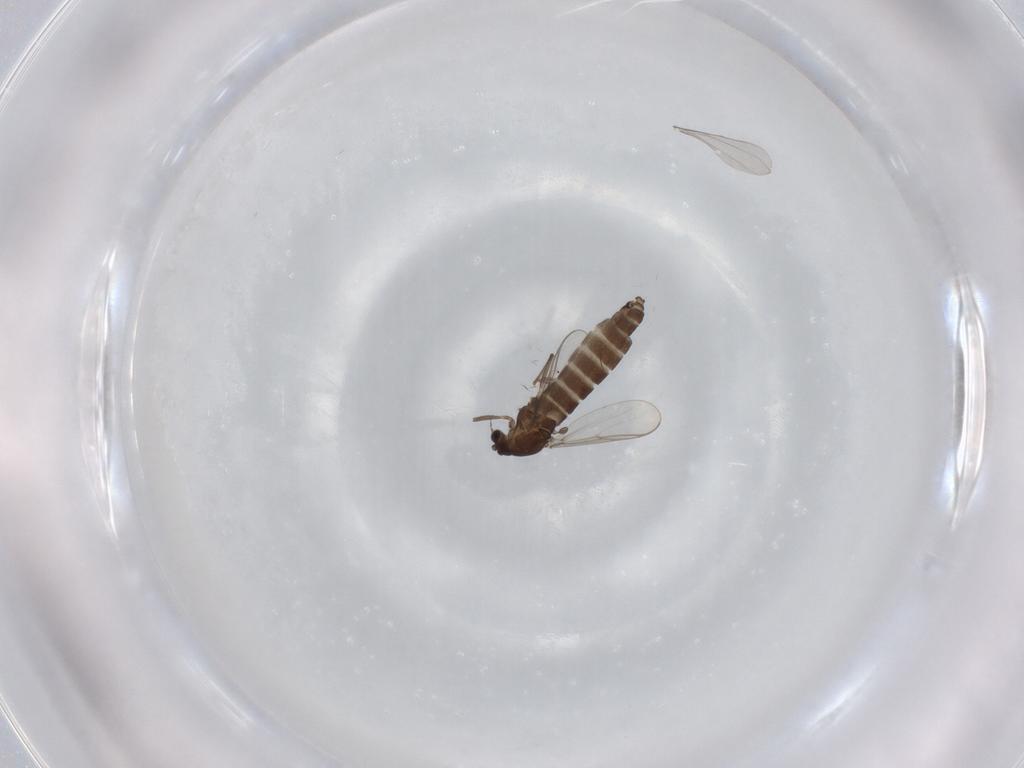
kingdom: Animalia
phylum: Arthropoda
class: Insecta
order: Diptera
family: Chironomidae
